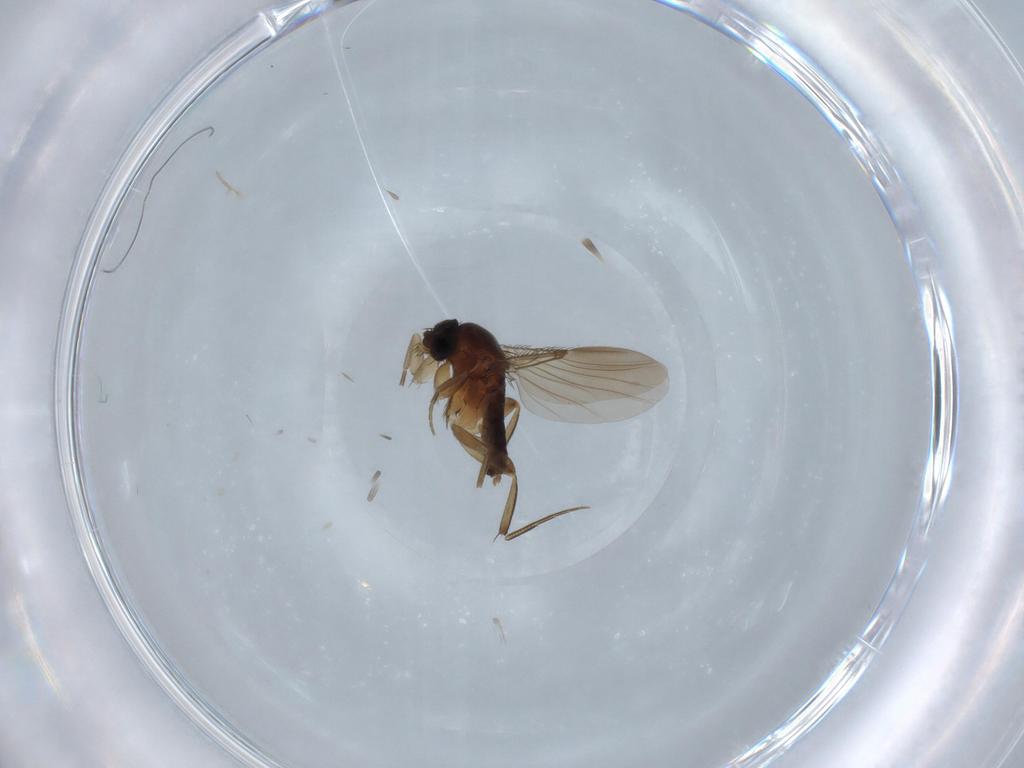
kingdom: Animalia
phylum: Arthropoda
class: Insecta
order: Diptera
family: Phoridae
